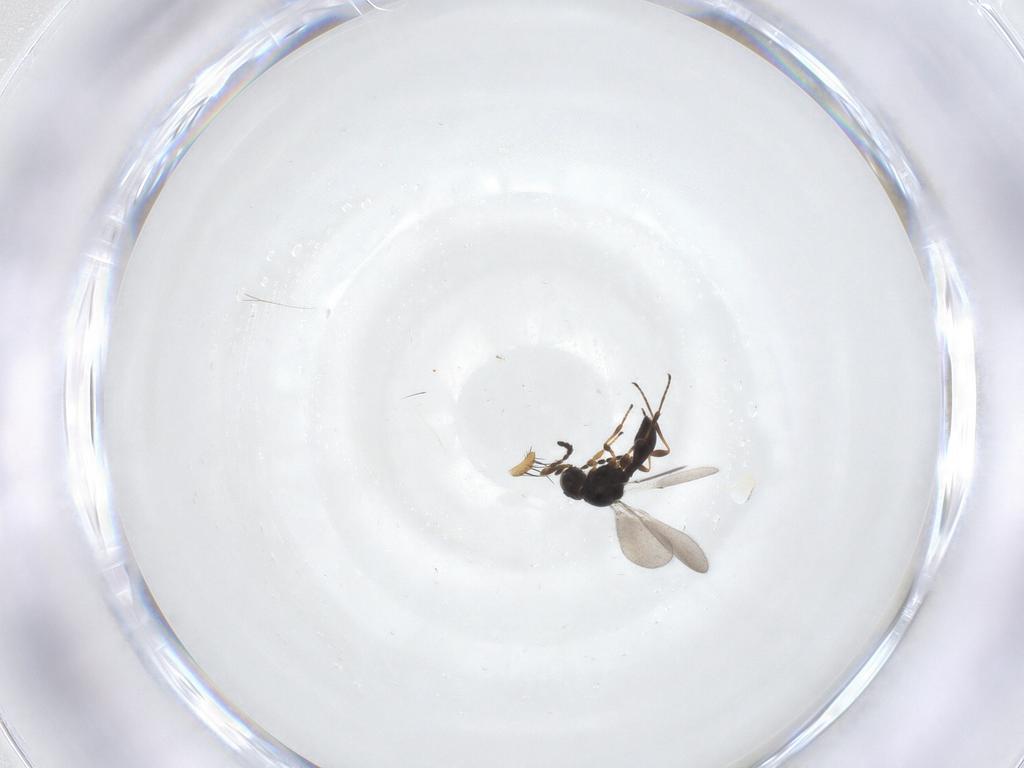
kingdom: Animalia
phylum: Arthropoda
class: Insecta
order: Hymenoptera
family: Platygastridae
